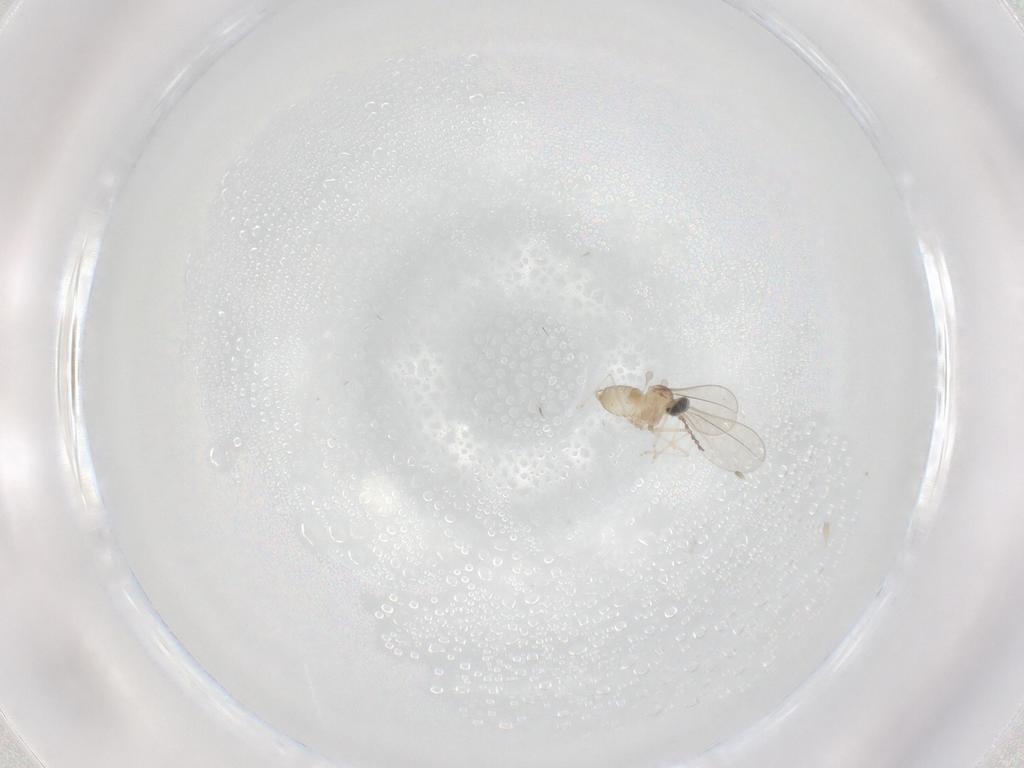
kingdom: Animalia
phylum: Arthropoda
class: Insecta
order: Diptera
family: Cecidomyiidae
